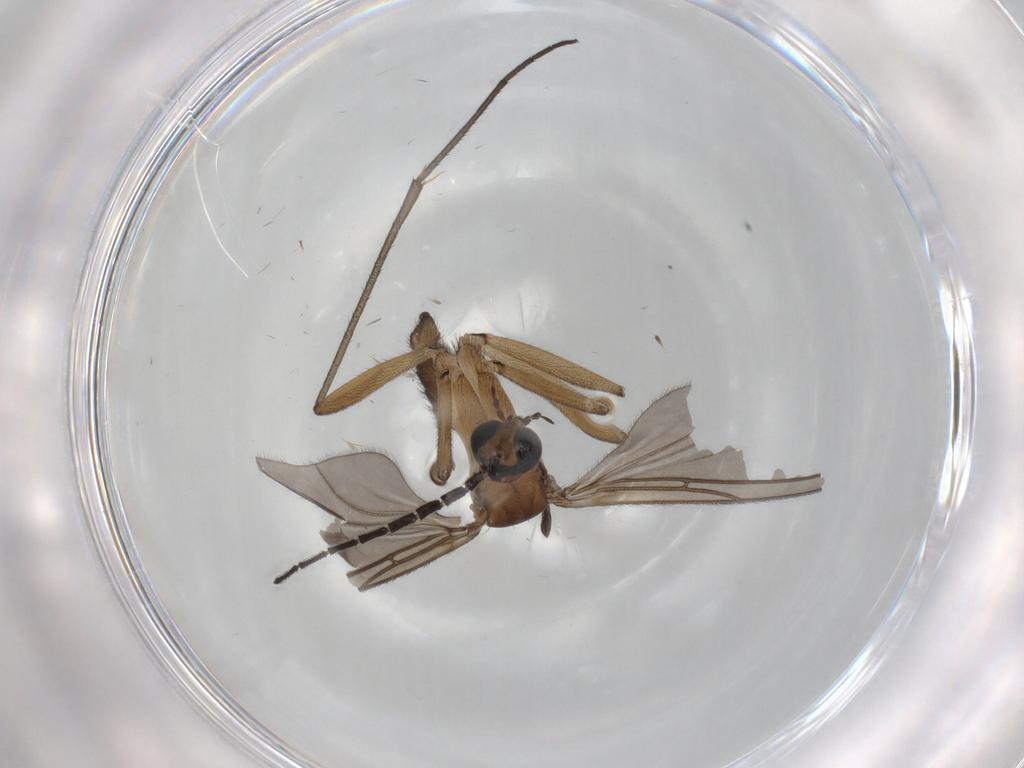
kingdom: Animalia
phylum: Arthropoda
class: Insecta
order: Diptera
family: Sciaridae
